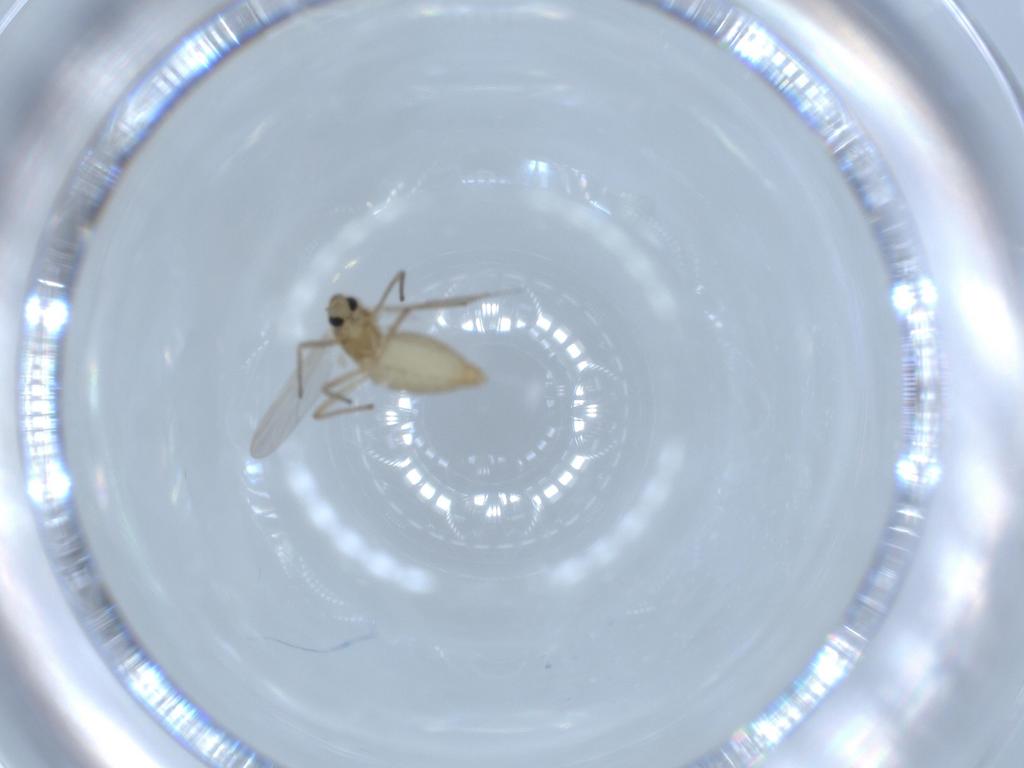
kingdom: Animalia
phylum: Arthropoda
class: Insecta
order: Diptera
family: Chironomidae
